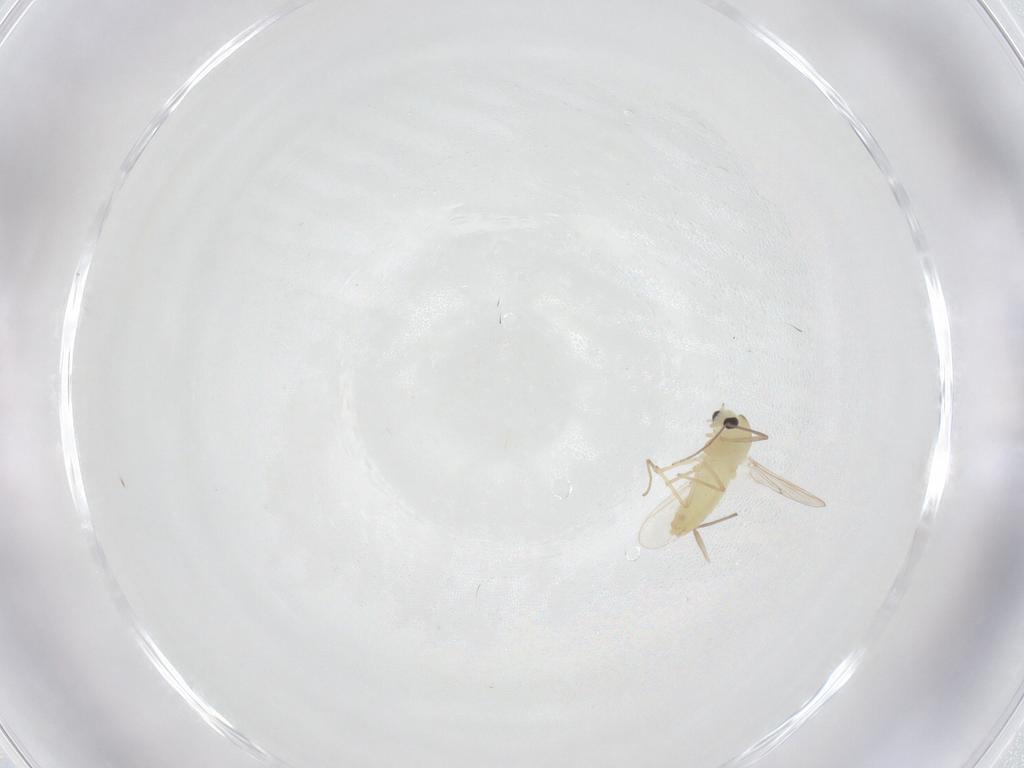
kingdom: Animalia
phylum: Arthropoda
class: Insecta
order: Diptera
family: Chironomidae
